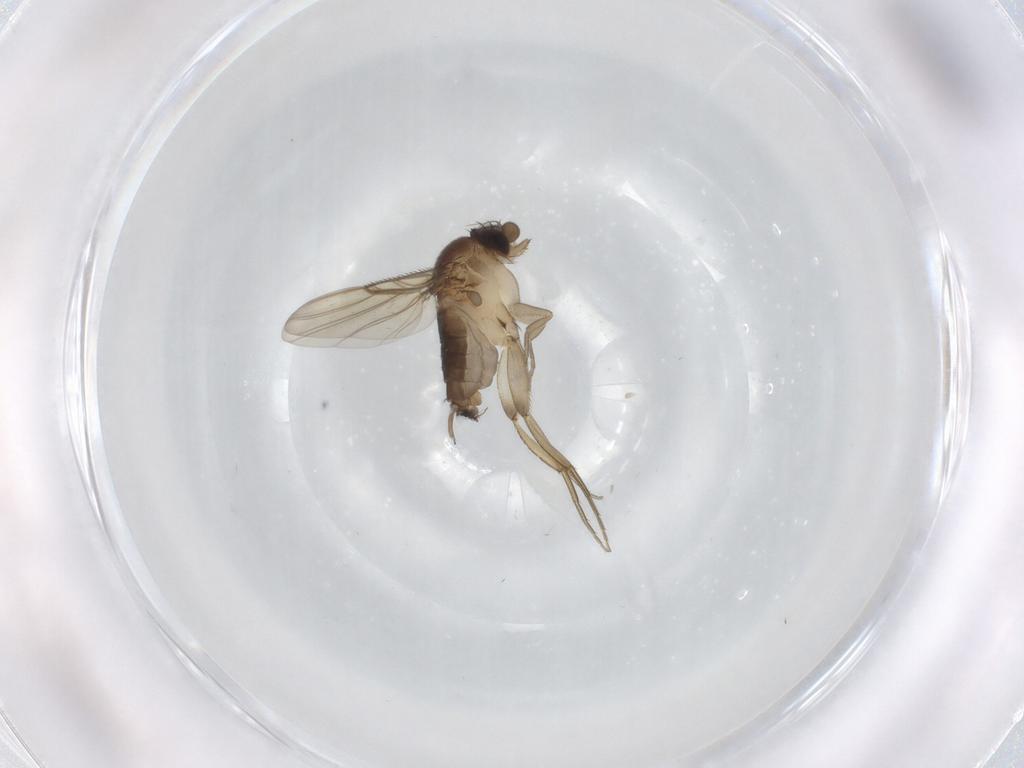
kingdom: Animalia
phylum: Arthropoda
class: Insecta
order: Diptera
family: Phoridae
